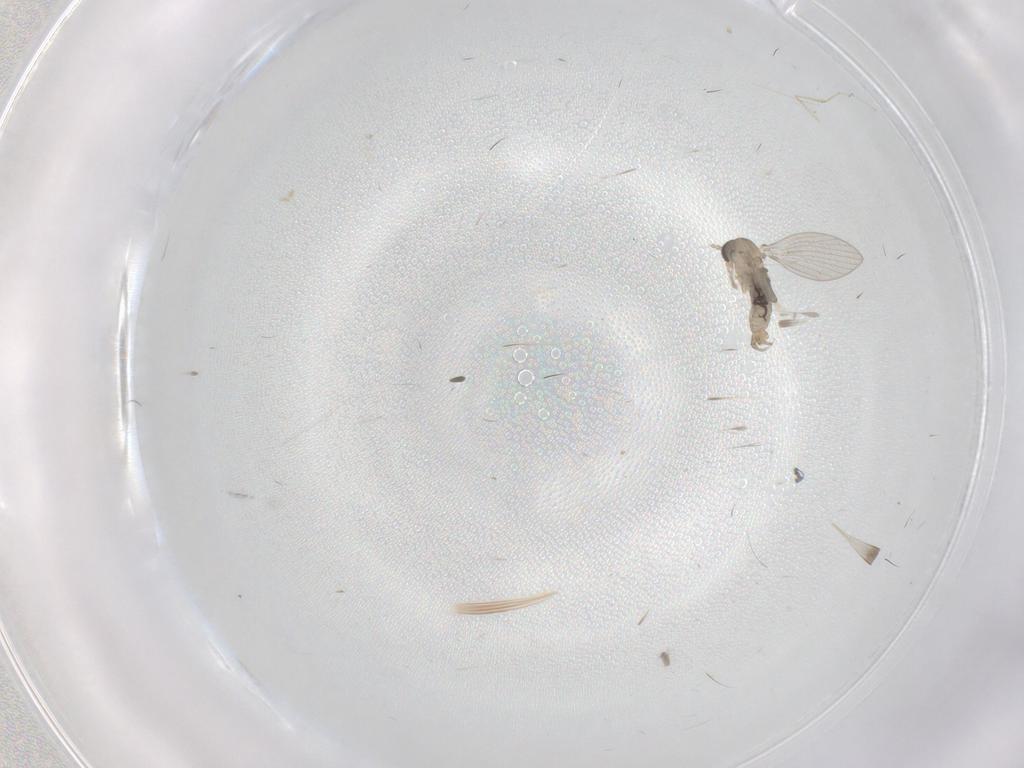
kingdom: Animalia
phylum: Arthropoda
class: Insecta
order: Diptera
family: Psychodidae
